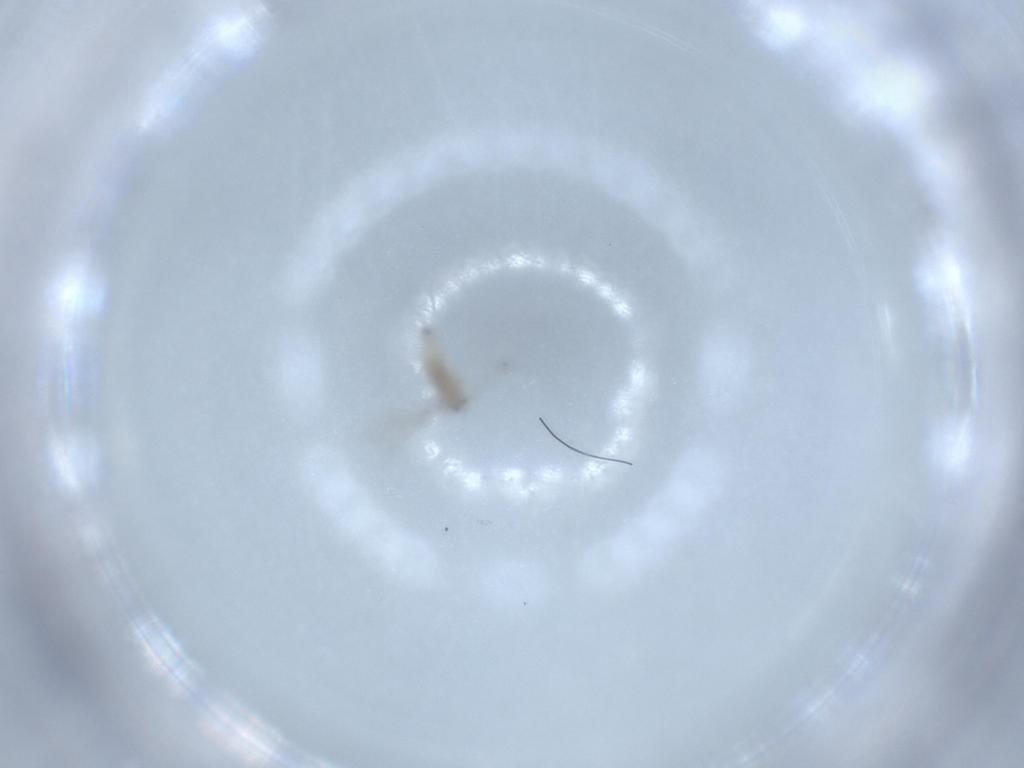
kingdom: Animalia
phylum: Arthropoda
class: Insecta
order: Diptera
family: Cecidomyiidae
